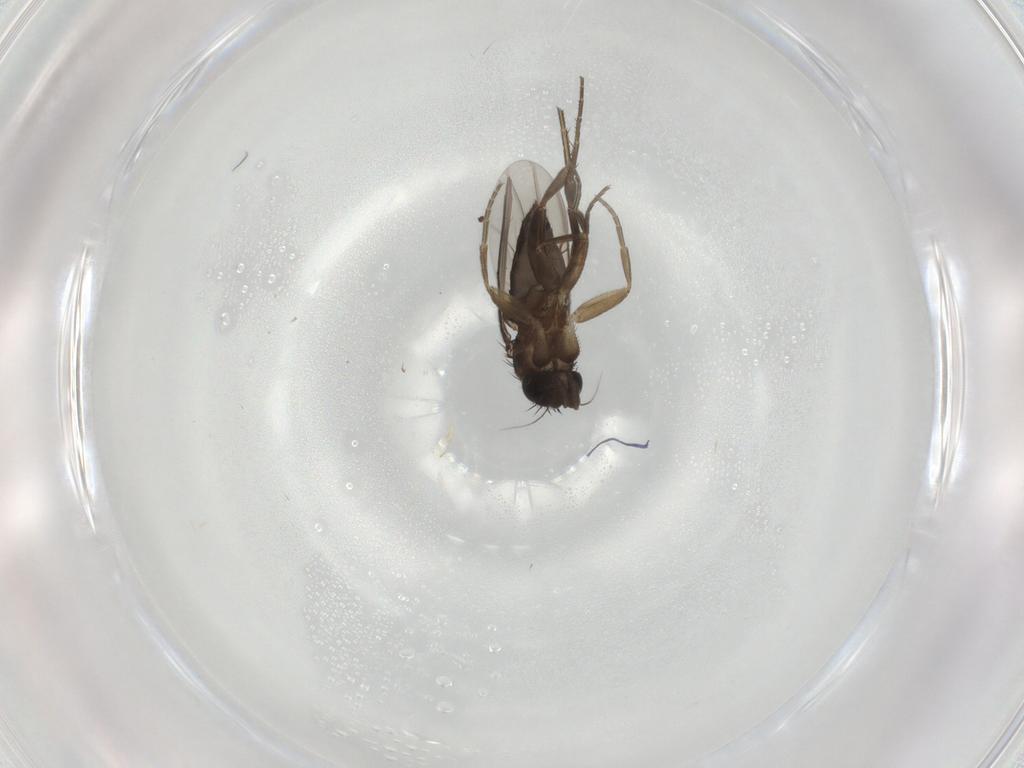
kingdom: Animalia
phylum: Arthropoda
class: Insecta
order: Diptera
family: Phoridae
